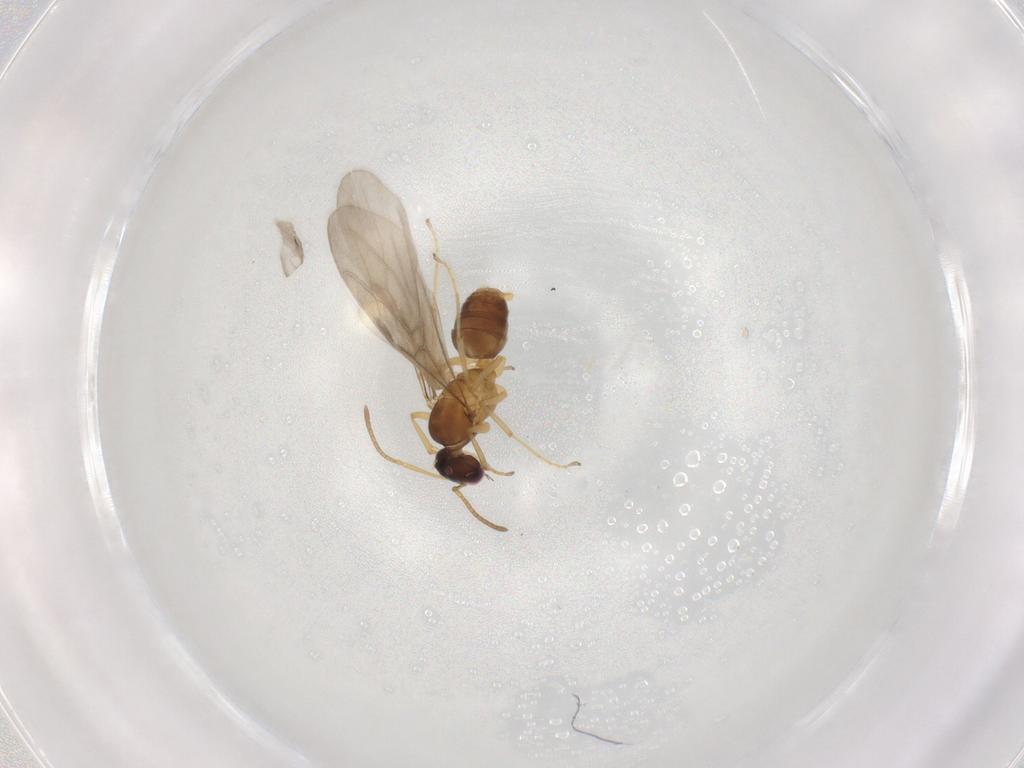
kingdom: Animalia
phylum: Arthropoda
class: Insecta
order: Hymenoptera
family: Formicidae
